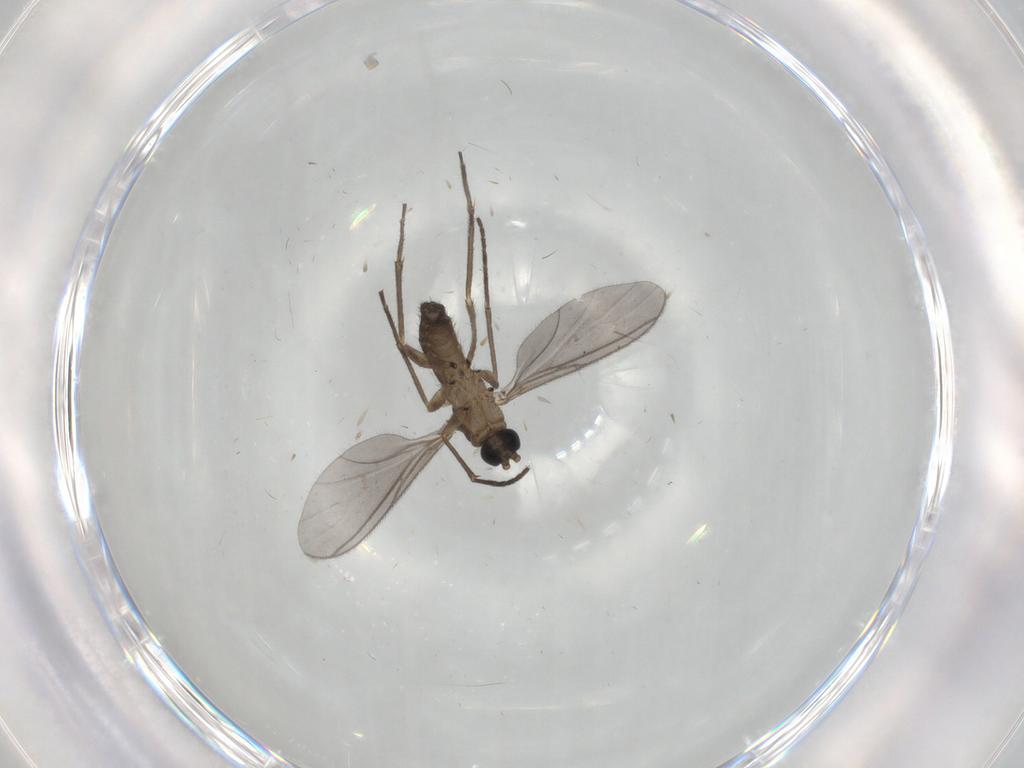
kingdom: Animalia
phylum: Arthropoda
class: Insecta
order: Diptera
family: Sciaridae
